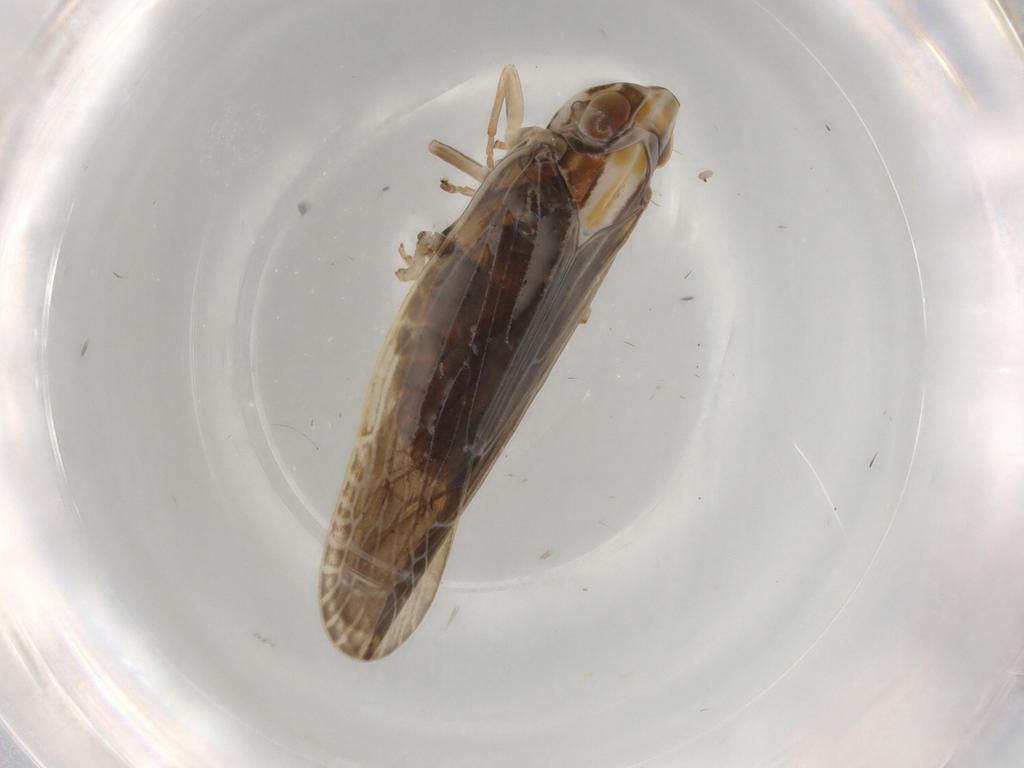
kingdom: Animalia
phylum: Arthropoda
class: Insecta
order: Hemiptera
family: Achilidae
